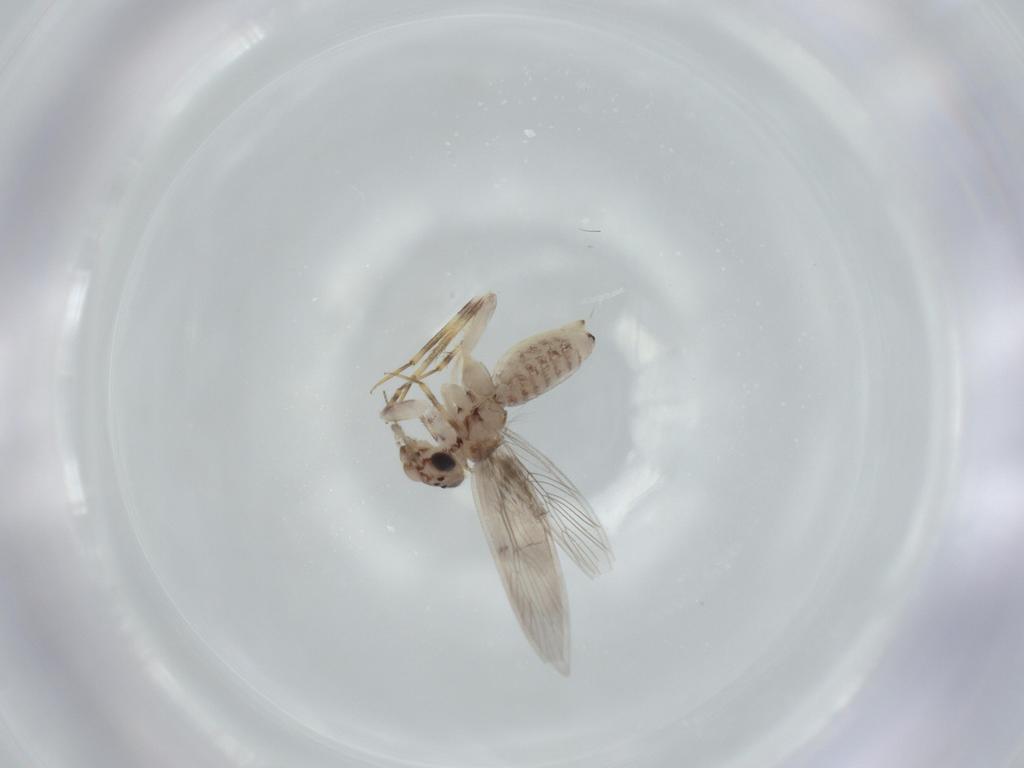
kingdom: Animalia
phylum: Arthropoda
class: Insecta
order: Psocodea
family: Lepidopsocidae
